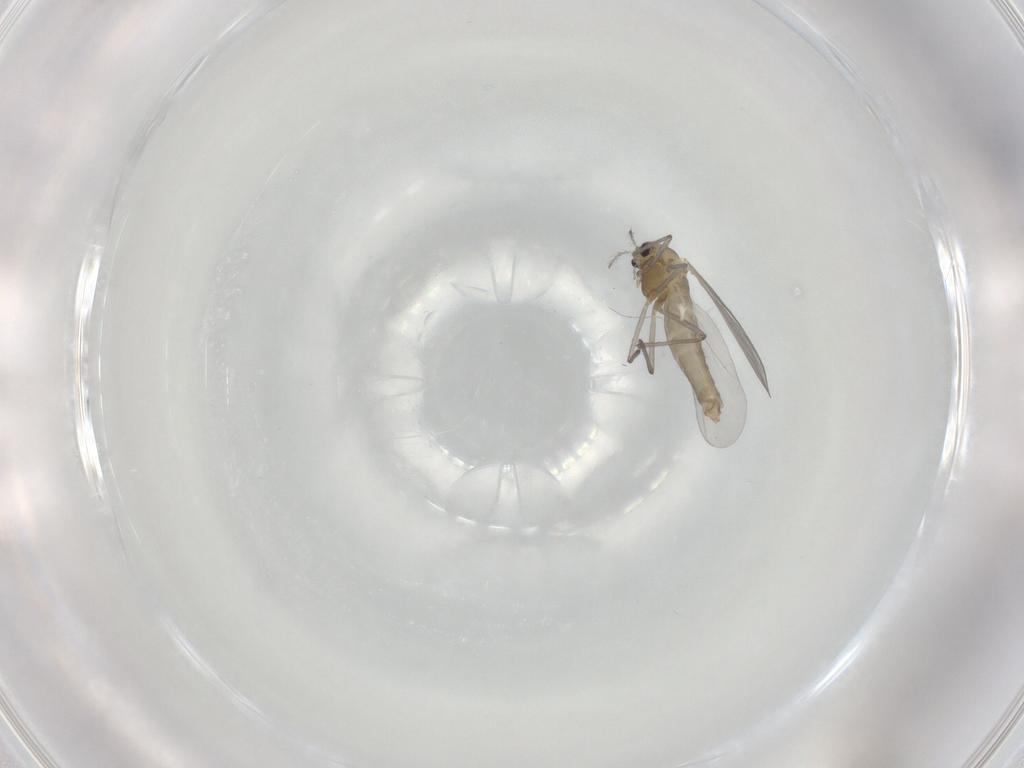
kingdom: Animalia
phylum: Arthropoda
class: Insecta
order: Diptera
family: Chironomidae
